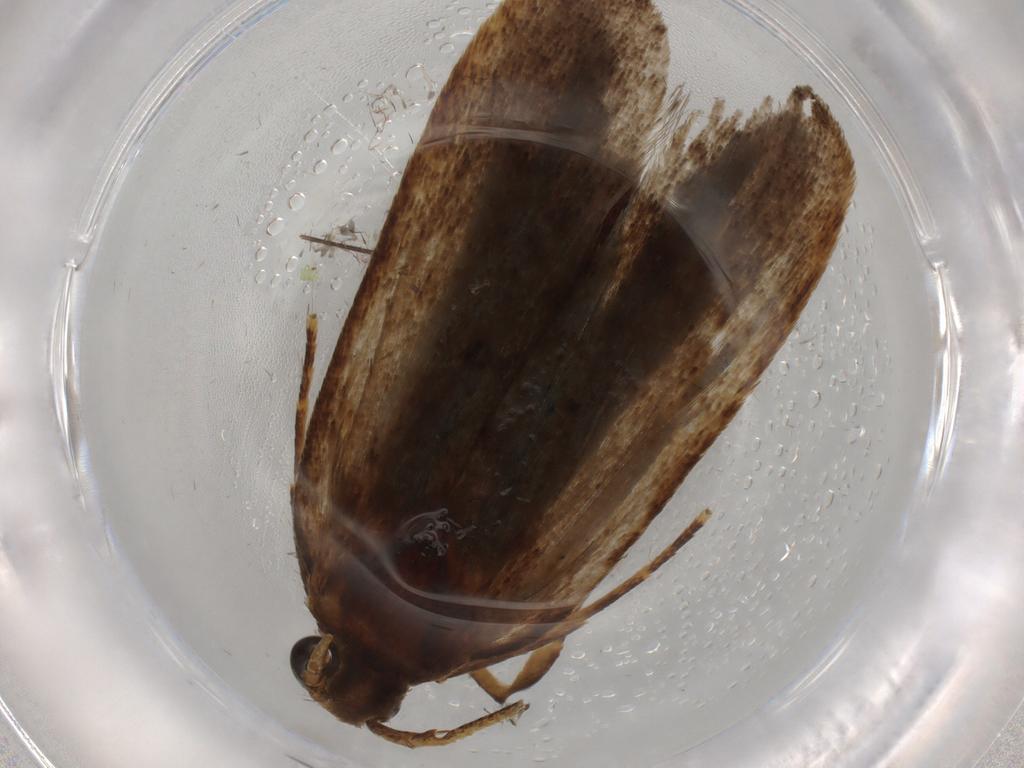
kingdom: Animalia
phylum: Arthropoda
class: Insecta
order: Lepidoptera
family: Autostichidae
